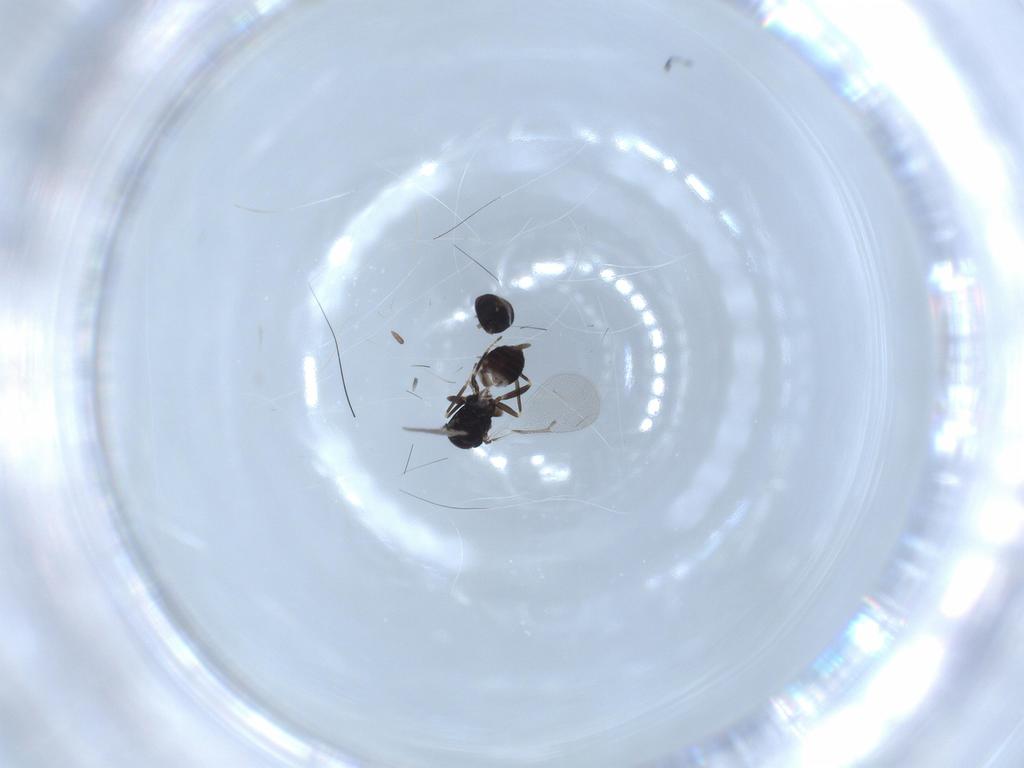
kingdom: Animalia
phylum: Arthropoda
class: Insecta
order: Hymenoptera
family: Eulophidae
